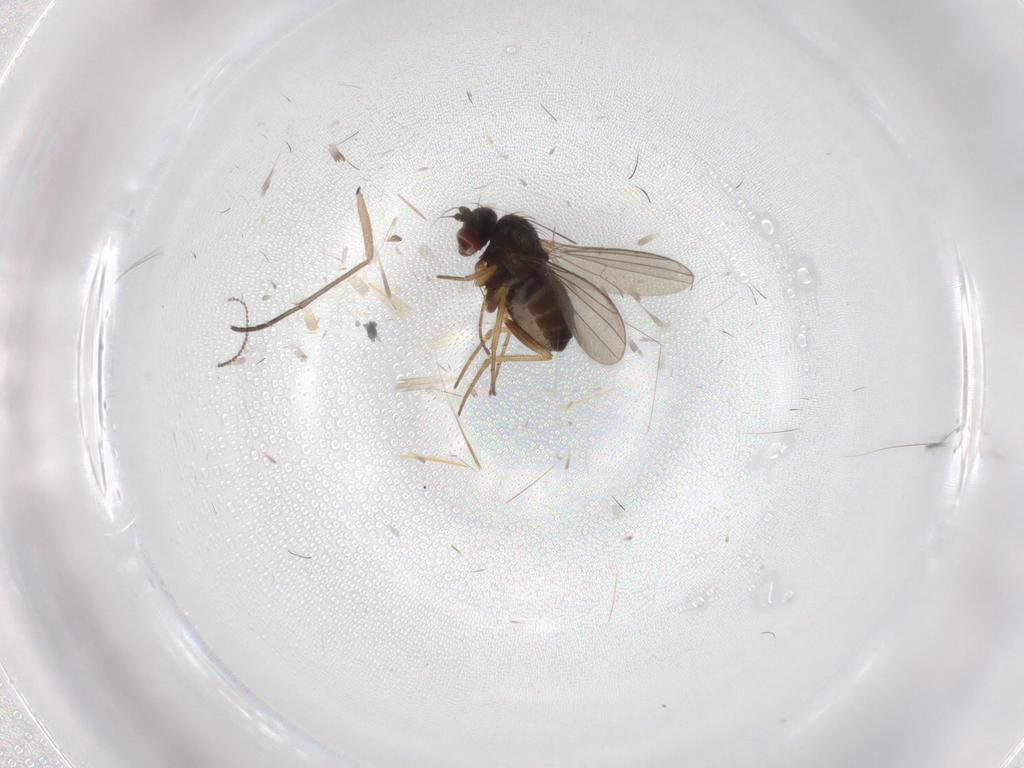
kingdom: Animalia
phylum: Arthropoda
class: Insecta
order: Diptera
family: Dolichopodidae
